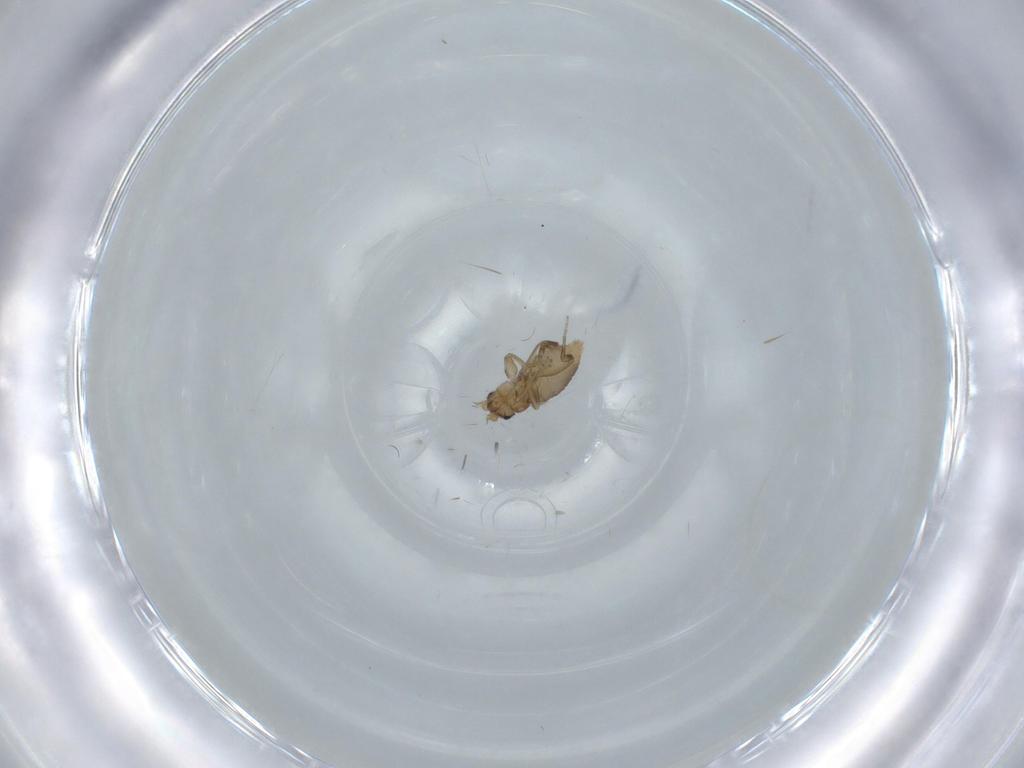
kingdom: Animalia
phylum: Arthropoda
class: Insecta
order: Diptera
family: Phoridae
